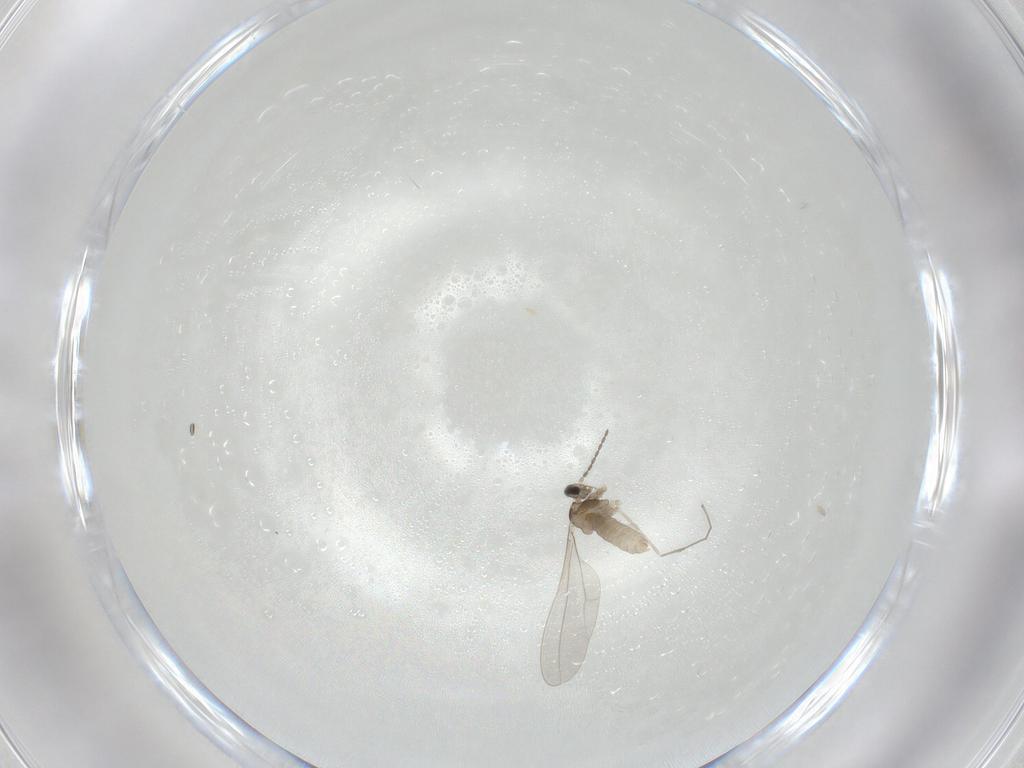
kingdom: Animalia
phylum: Arthropoda
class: Insecta
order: Diptera
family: Cecidomyiidae
